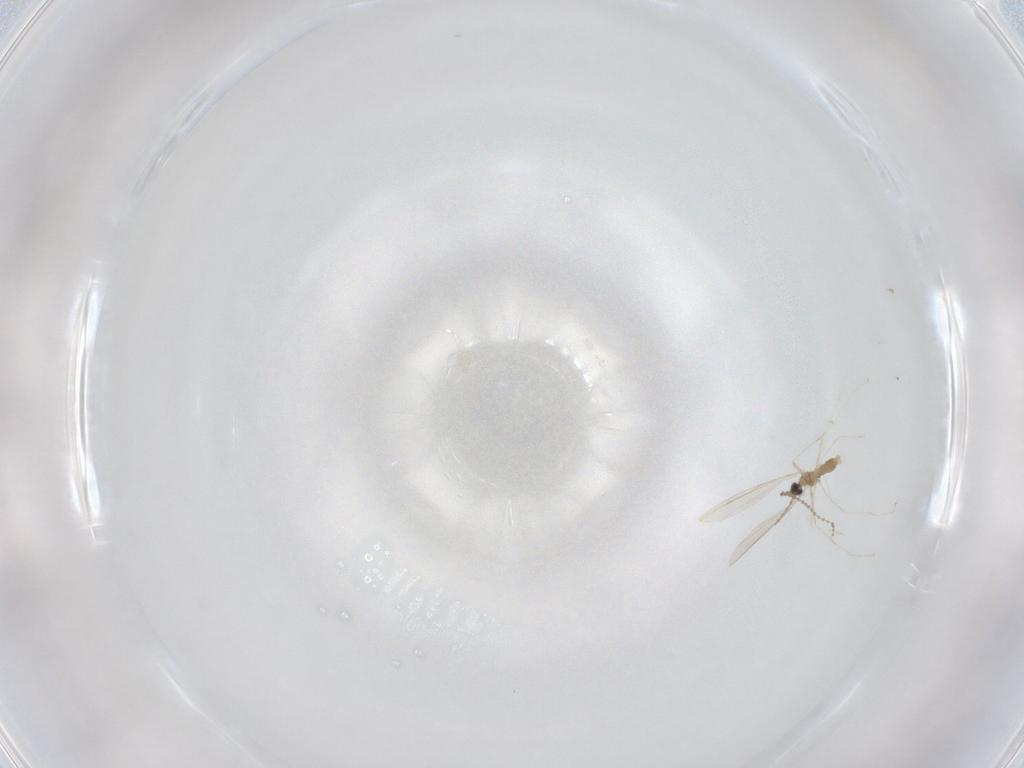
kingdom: Animalia
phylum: Arthropoda
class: Insecta
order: Diptera
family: Cecidomyiidae
